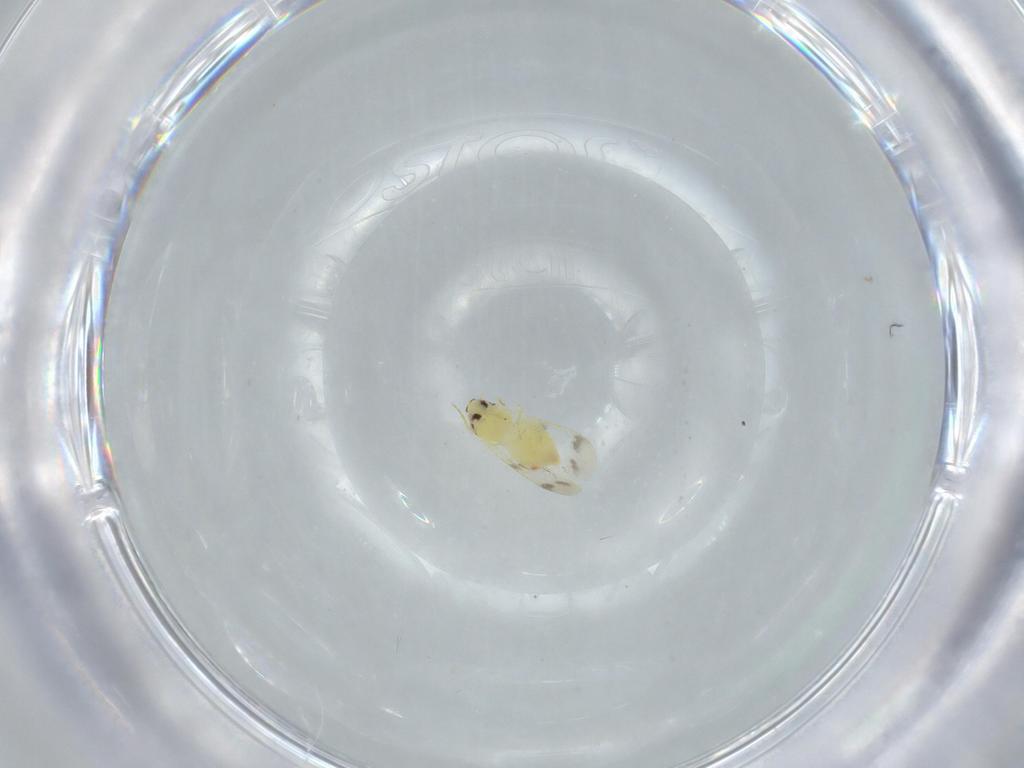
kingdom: Animalia
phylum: Arthropoda
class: Insecta
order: Hemiptera
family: Aleyrodidae
